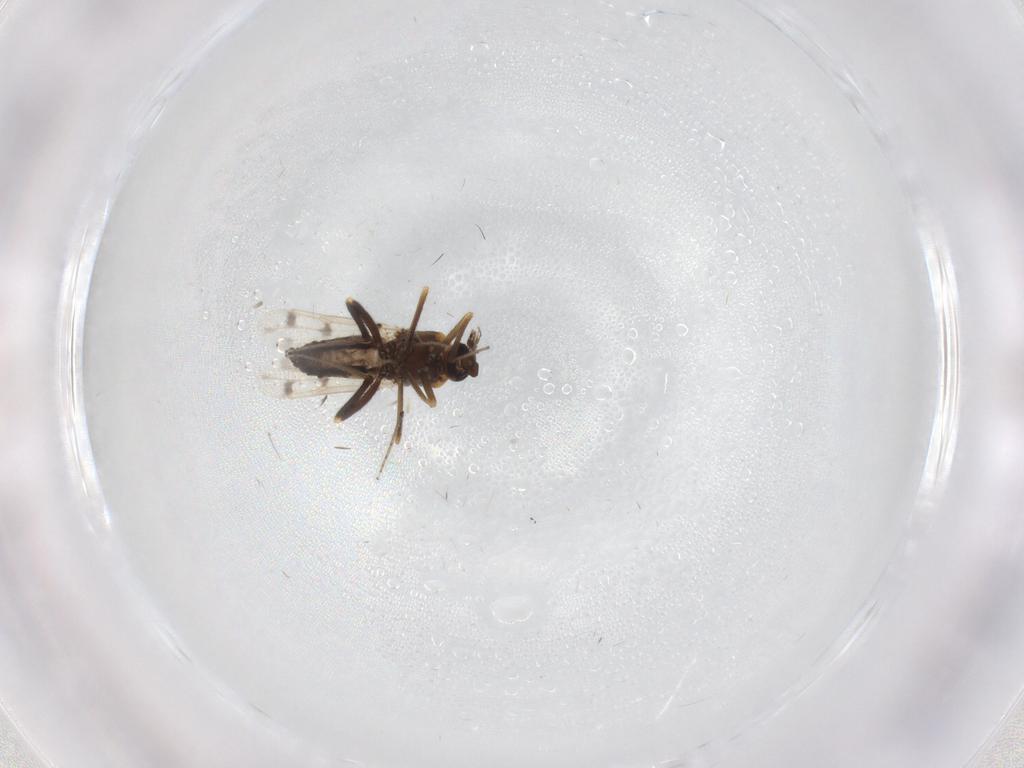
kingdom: Animalia
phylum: Arthropoda
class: Insecta
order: Diptera
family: Ceratopogonidae
